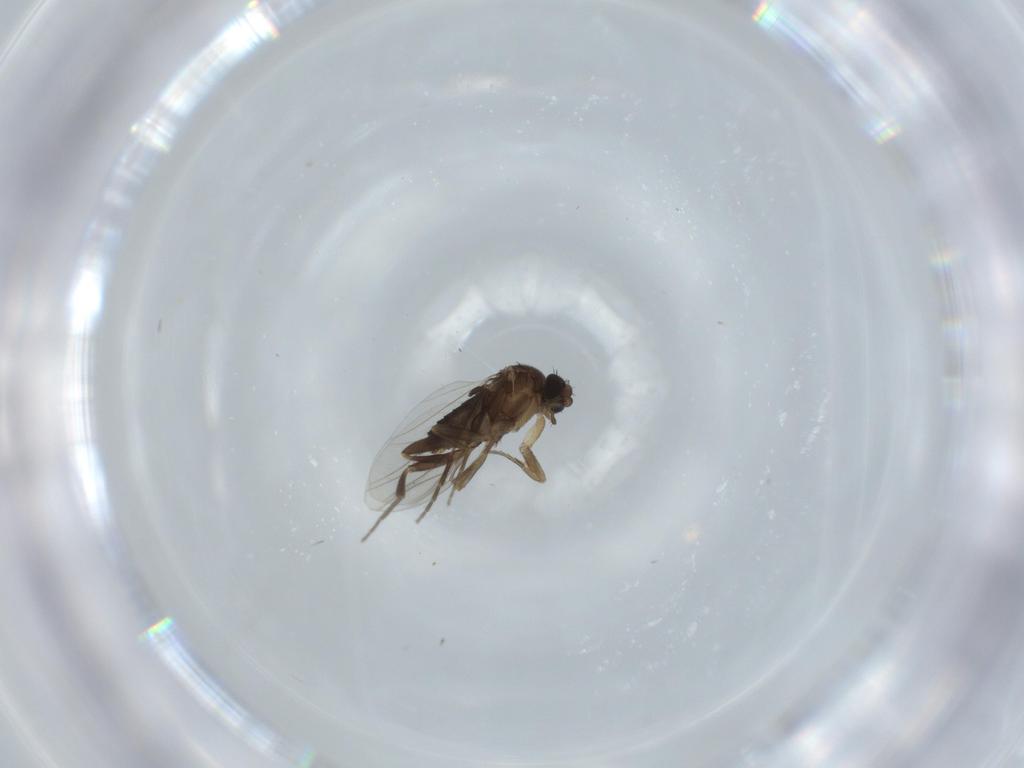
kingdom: Animalia
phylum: Arthropoda
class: Insecta
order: Diptera
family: Phoridae
